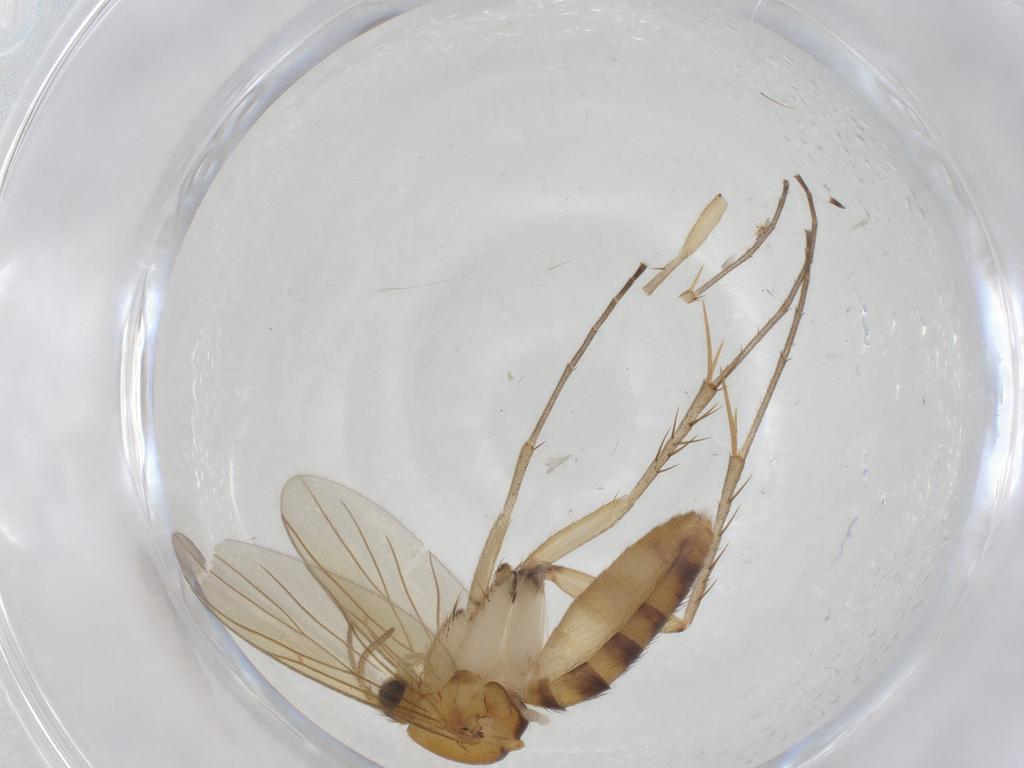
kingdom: Animalia
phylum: Arthropoda
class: Insecta
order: Diptera
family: Mycetophilidae
